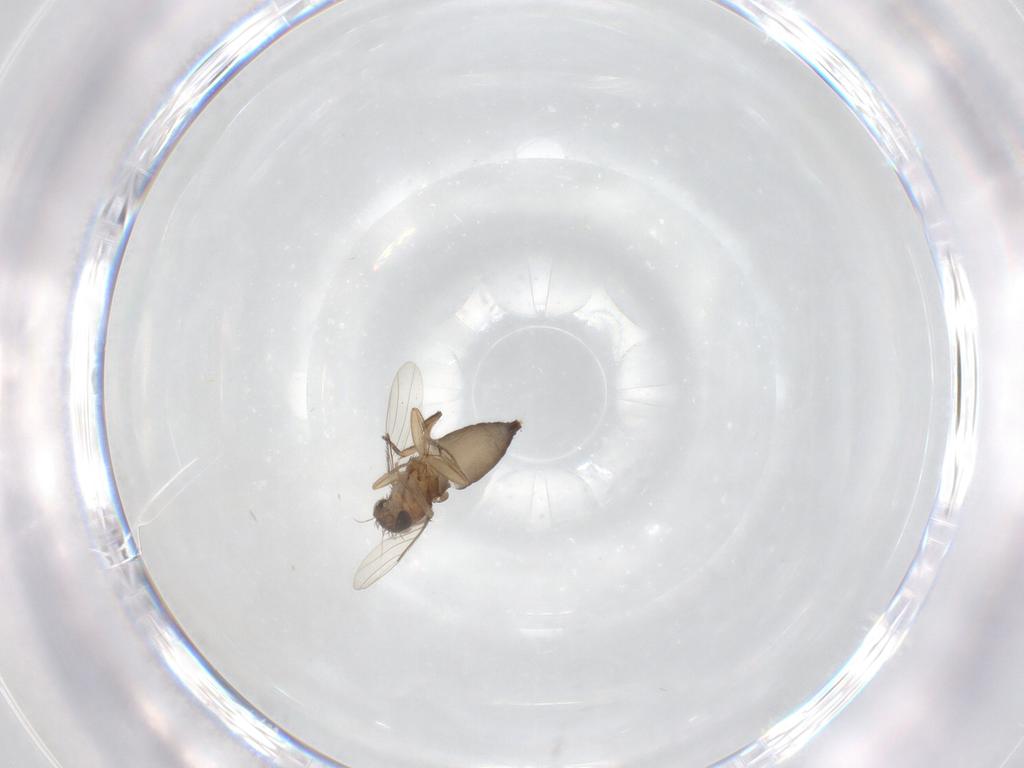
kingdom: Animalia
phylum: Arthropoda
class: Insecta
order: Diptera
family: Phoridae
